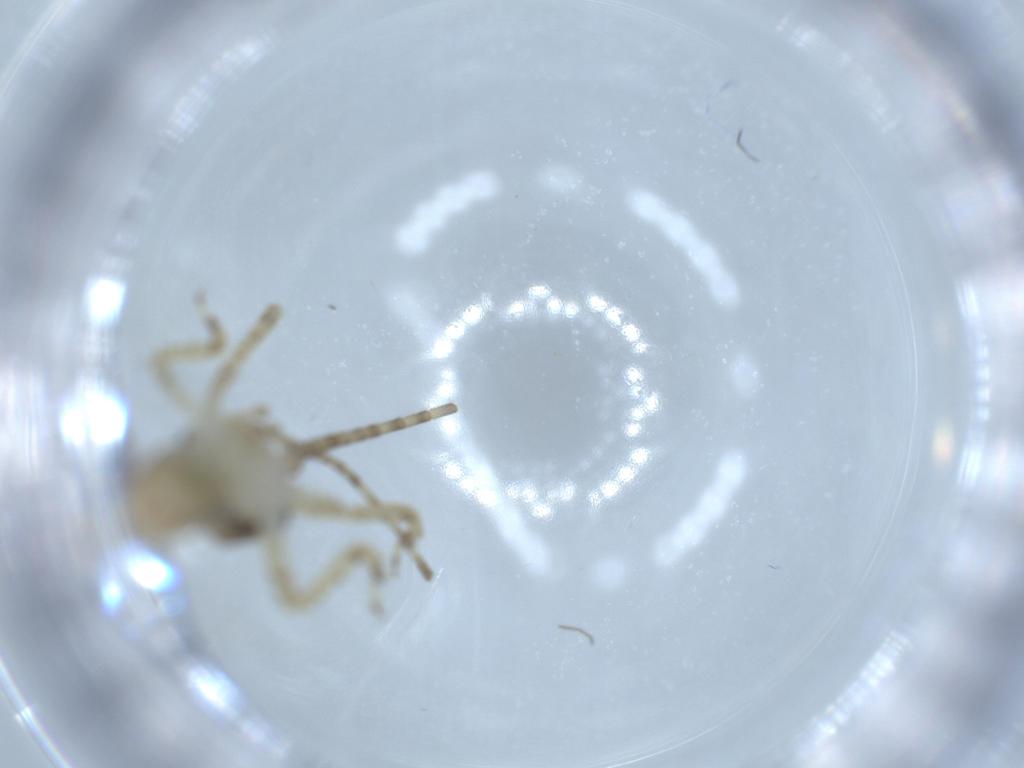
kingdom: Animalia
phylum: Arthropoda
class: Insecta
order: Orthoptera
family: Gryllidae
